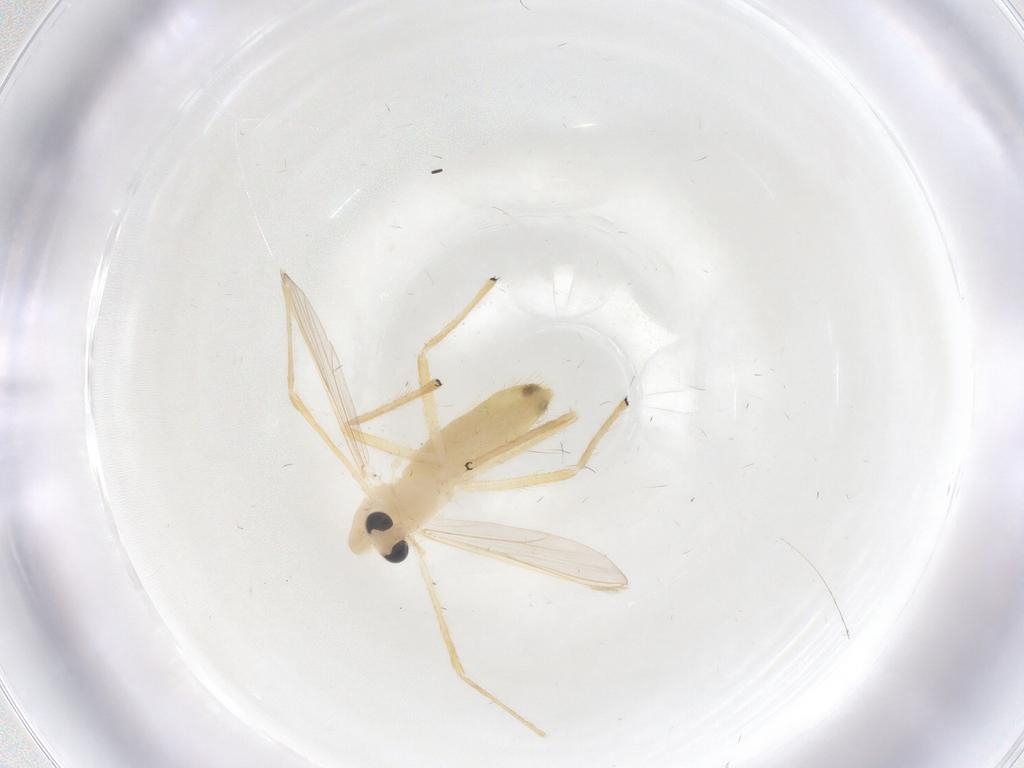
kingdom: Animalia
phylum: Arthropoda
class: Insecta
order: Diptera
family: Chironomidae
